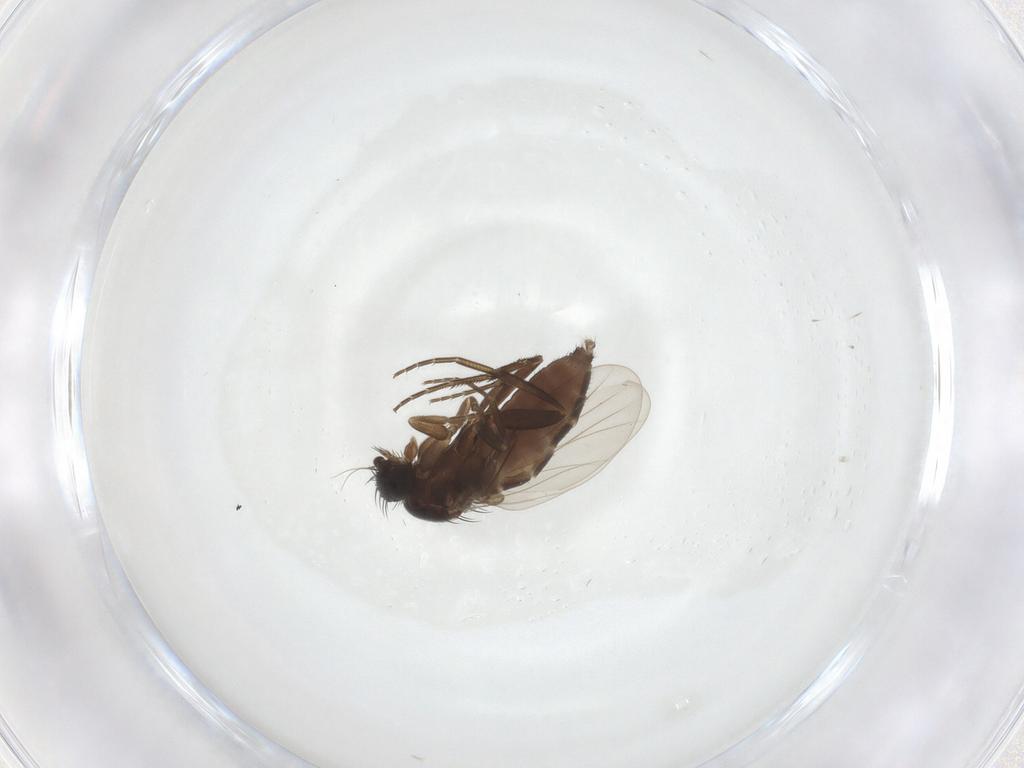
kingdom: Animalia
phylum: Arthropoda
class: Insecta
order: Diptera
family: Phoridae
